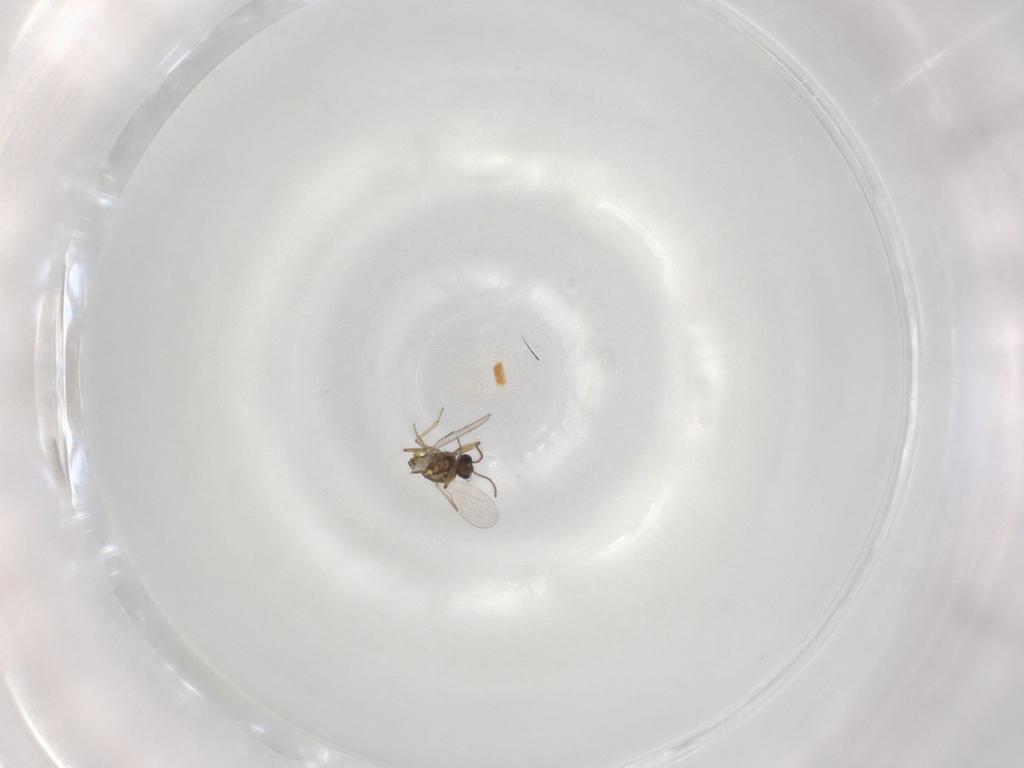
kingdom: Animalia
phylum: Arthropoda
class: Insecta
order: Diptera
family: Ceratopogonidae
